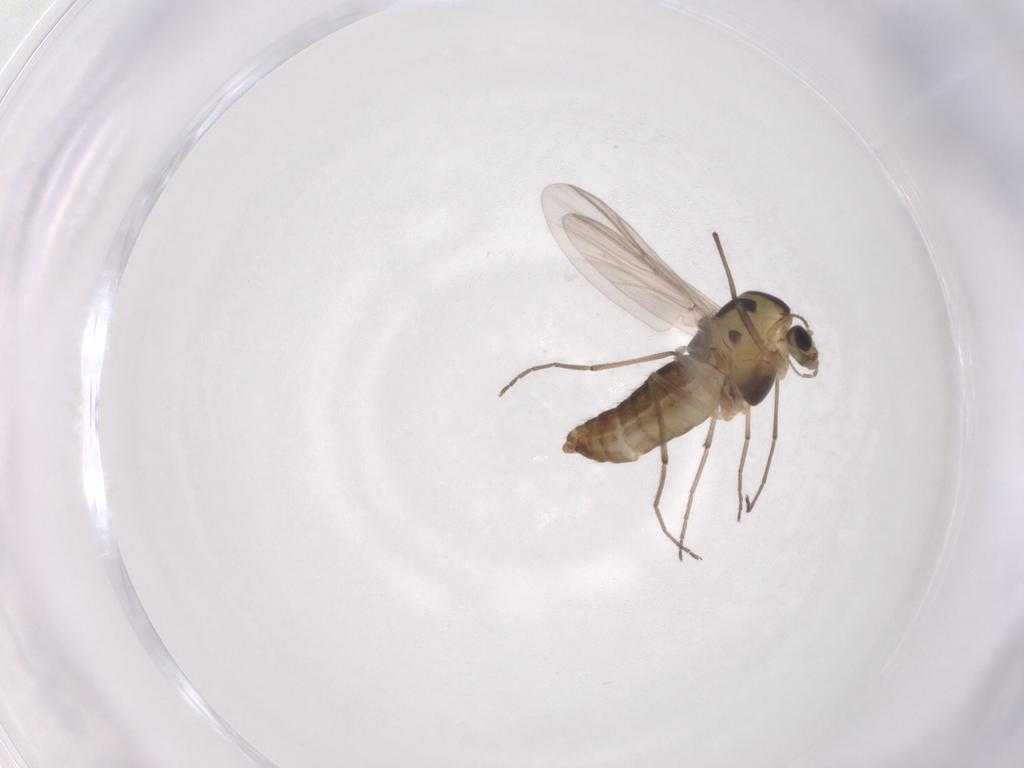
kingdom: Animalia
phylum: Arthropoda
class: Insecta
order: Diptera
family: Chironomidae
